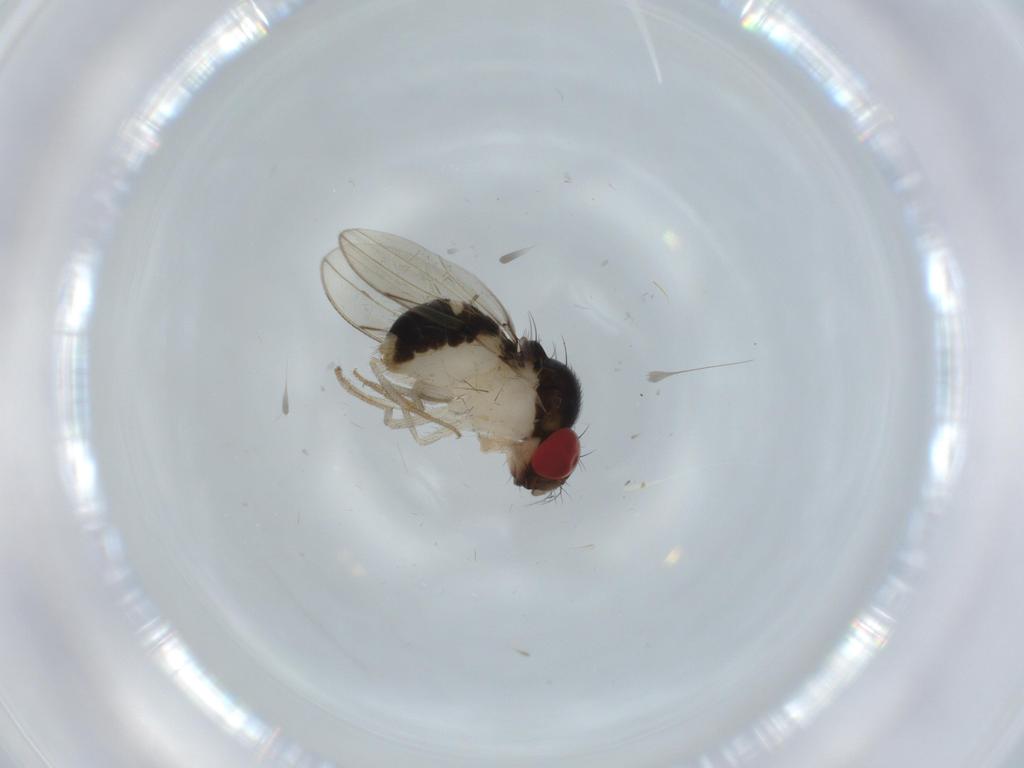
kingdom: Animalia
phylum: Arthropoda
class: Insecta
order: Diptera
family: Drosophilidae
